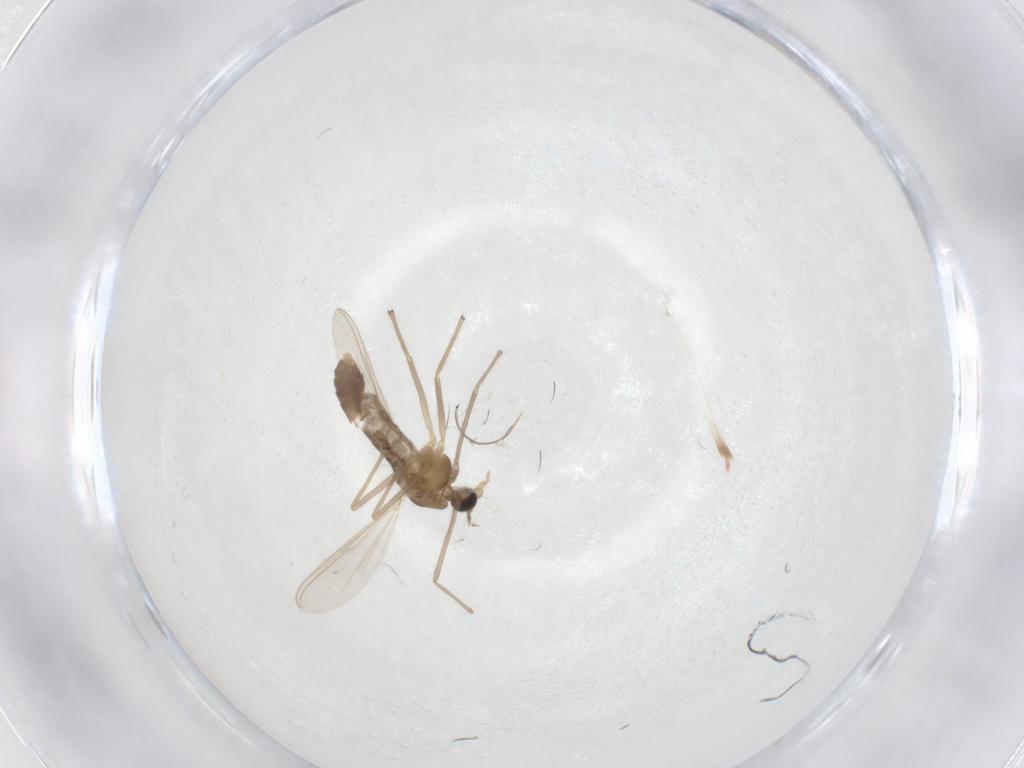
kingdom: Animalia
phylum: Arthropoda
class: Insecta
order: Diptera
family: Chironomidae
